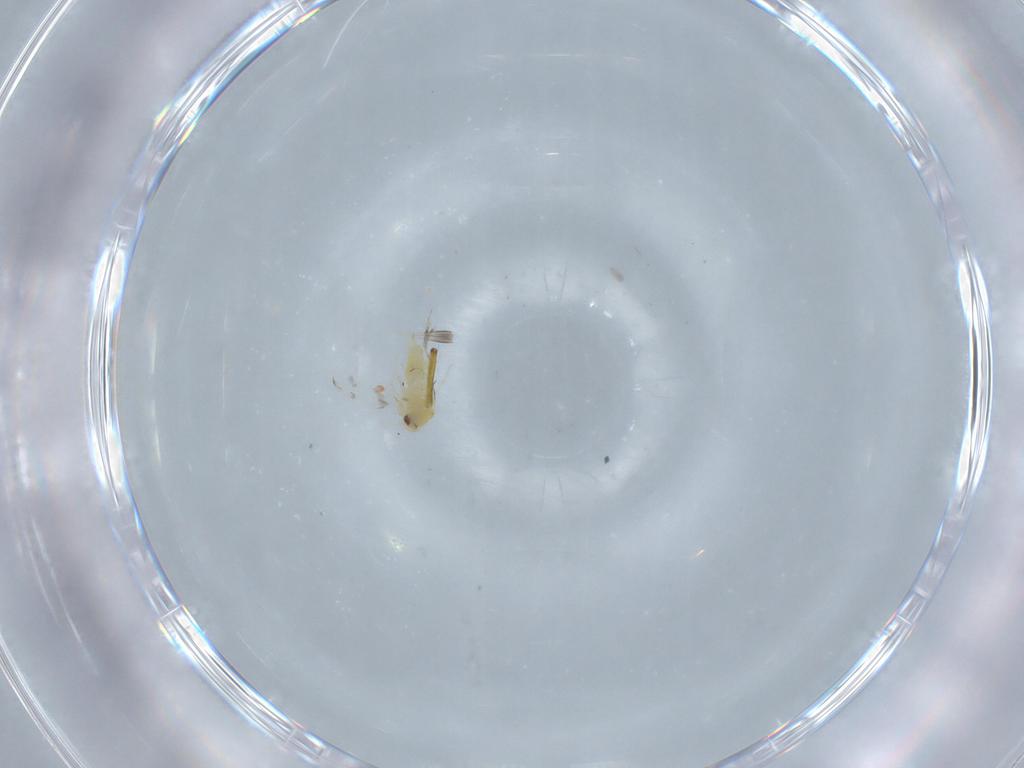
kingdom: Animalia
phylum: Arthropoda
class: Insecta
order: Hemiptera
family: Aleyrodidae
